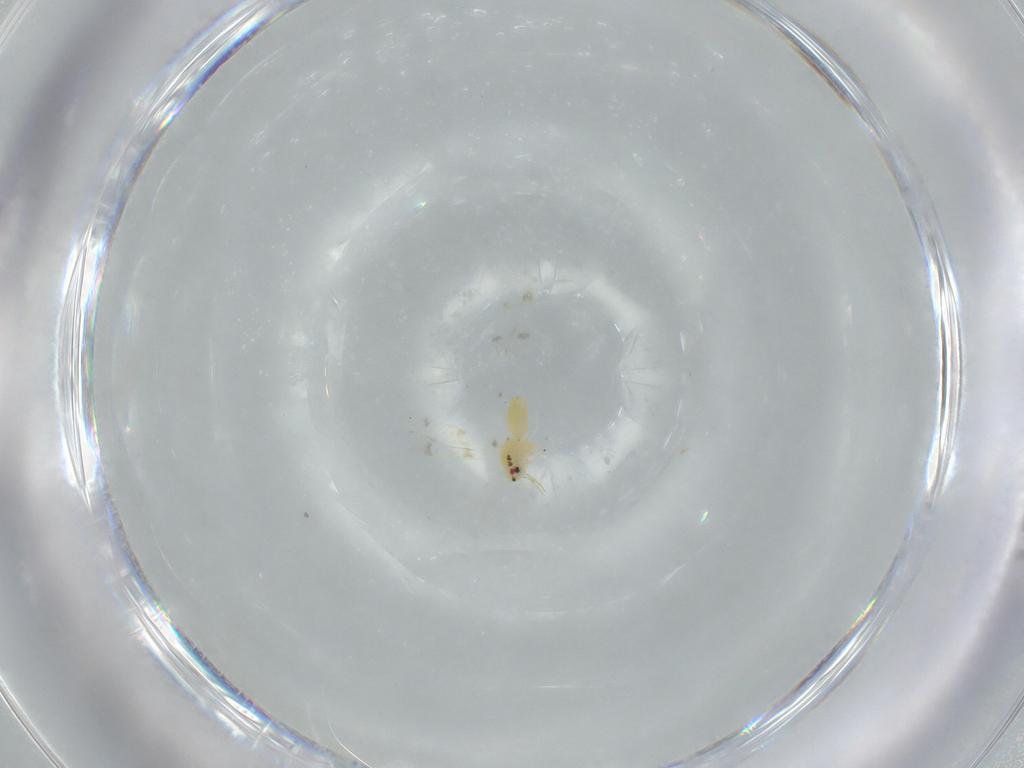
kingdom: Animalia
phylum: Arthropoda
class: Insecta
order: Hemiptera
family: Aleyrodidae
